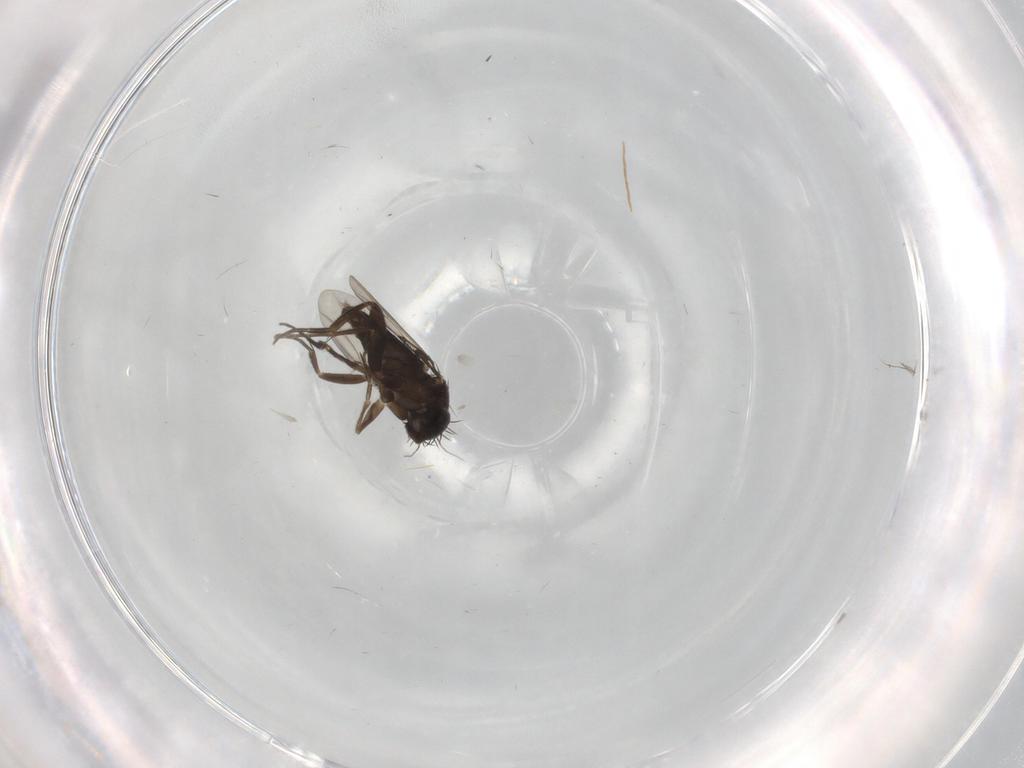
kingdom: Animalia
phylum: Arthropoda
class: Insecta
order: Diptera
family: Phoridae
